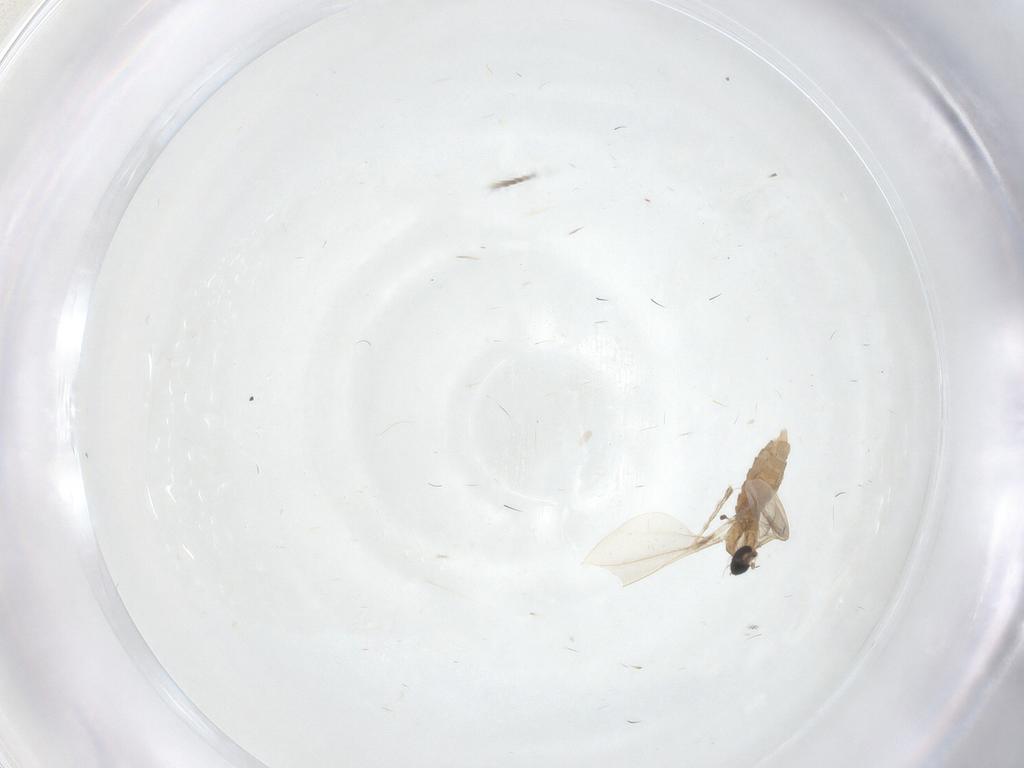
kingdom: Animalia
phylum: Arthropoda
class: Insecta
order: Diptera
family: Cecidomyiidae
